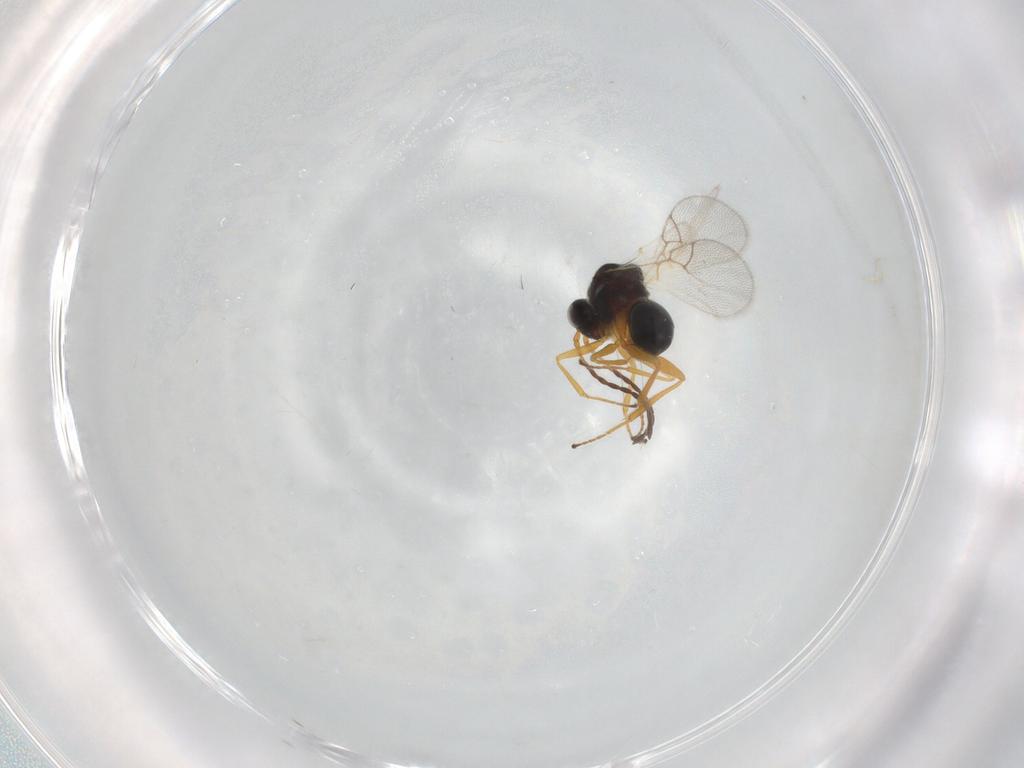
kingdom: Animalia
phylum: Arthropoda
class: Insecta
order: Hymenoptera
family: Figitidae
